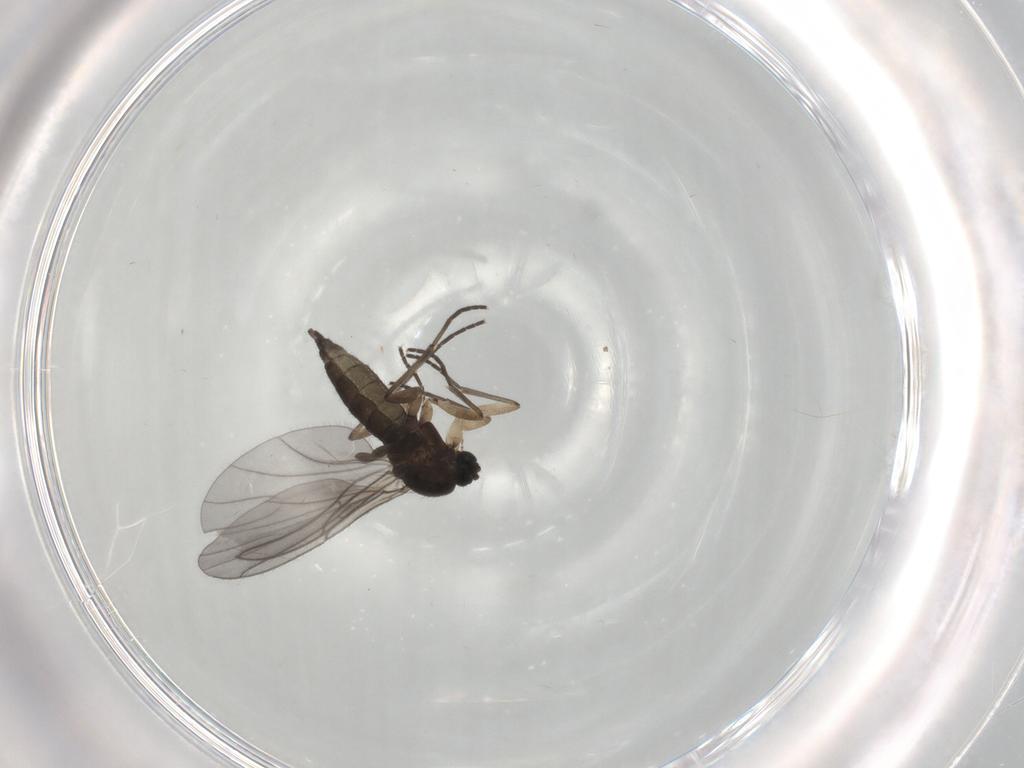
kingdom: Animalia
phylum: Arthropoda
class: Insecta
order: Diptera
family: Sciaridae
